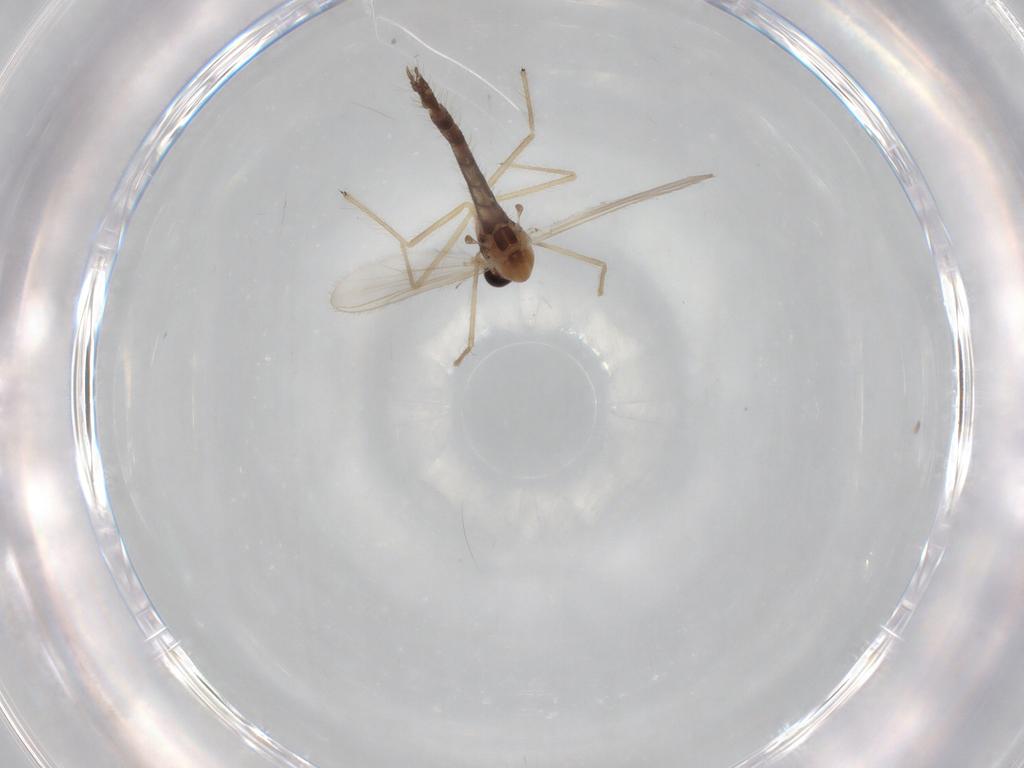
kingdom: Animalia
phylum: Arthropoda
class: Insecta
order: Diptera
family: Chironomidae
